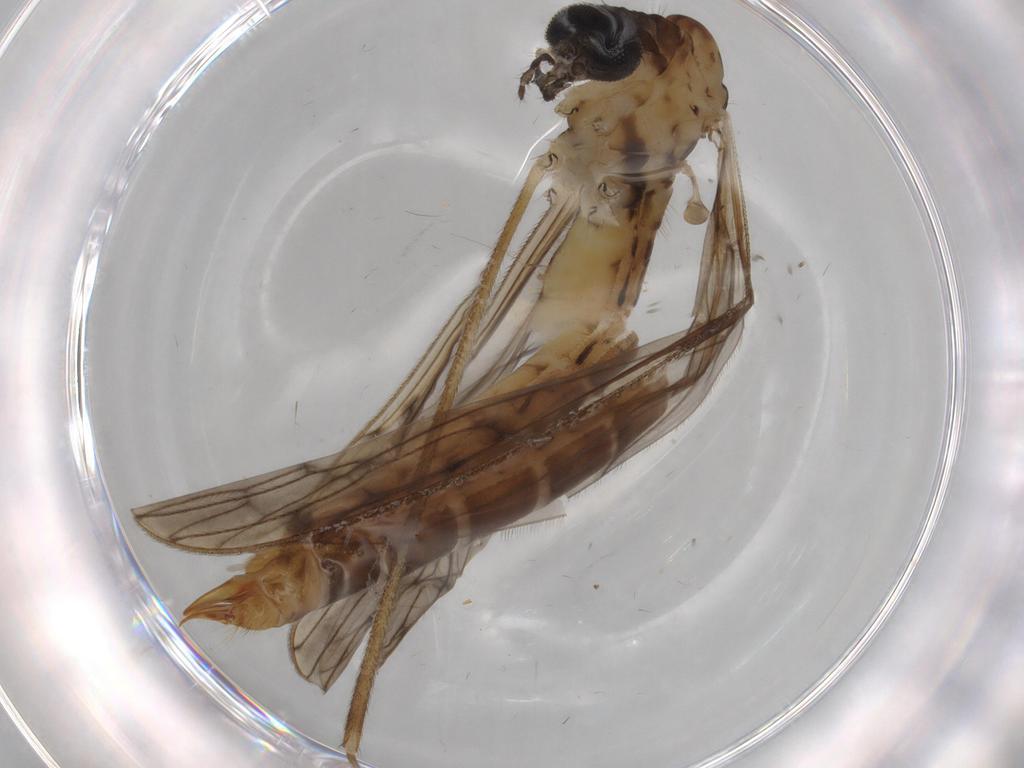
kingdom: Animalia
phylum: Arthropoda
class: Insecta
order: Diptera
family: Limoniidae
